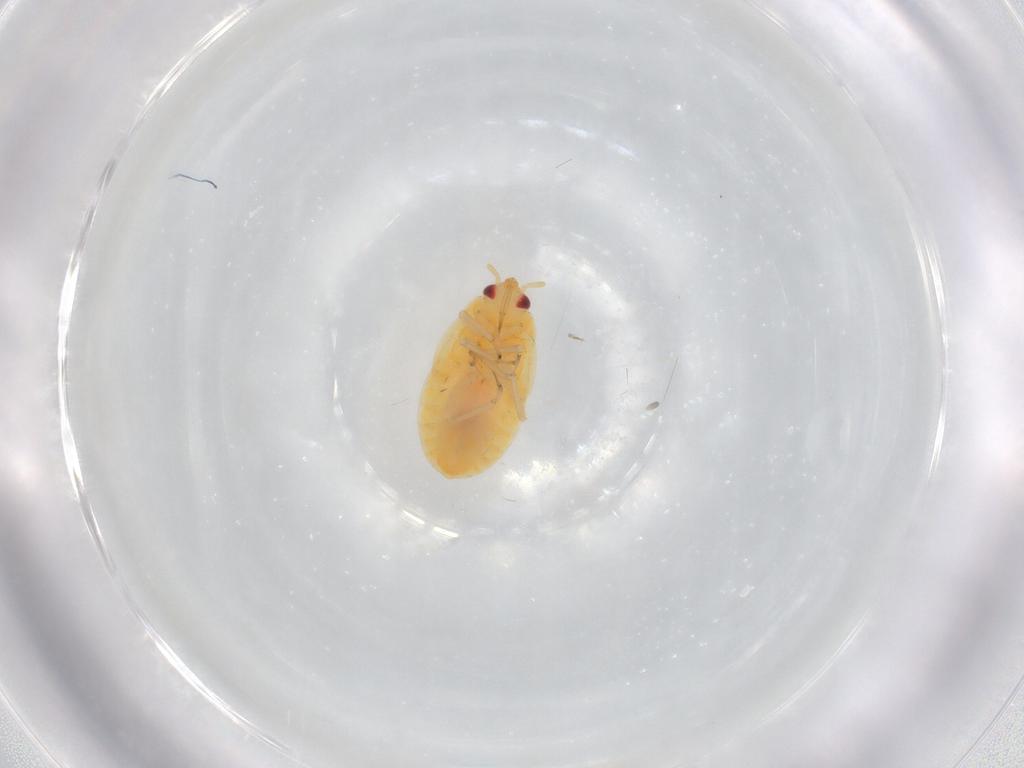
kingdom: Animalia
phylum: Arthropoda
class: Insecta
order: Hemiptera
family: Anthocoridae
